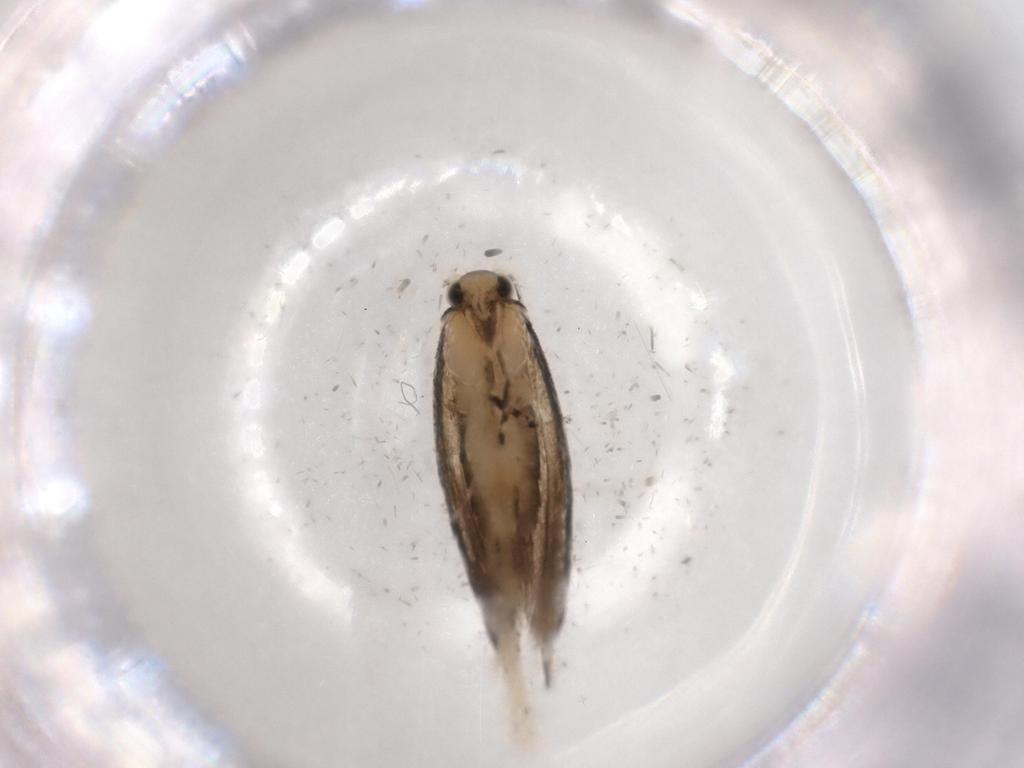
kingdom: Animalia
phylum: Arthropoda
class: Insecta
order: Lepidoptera
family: Tineidae
